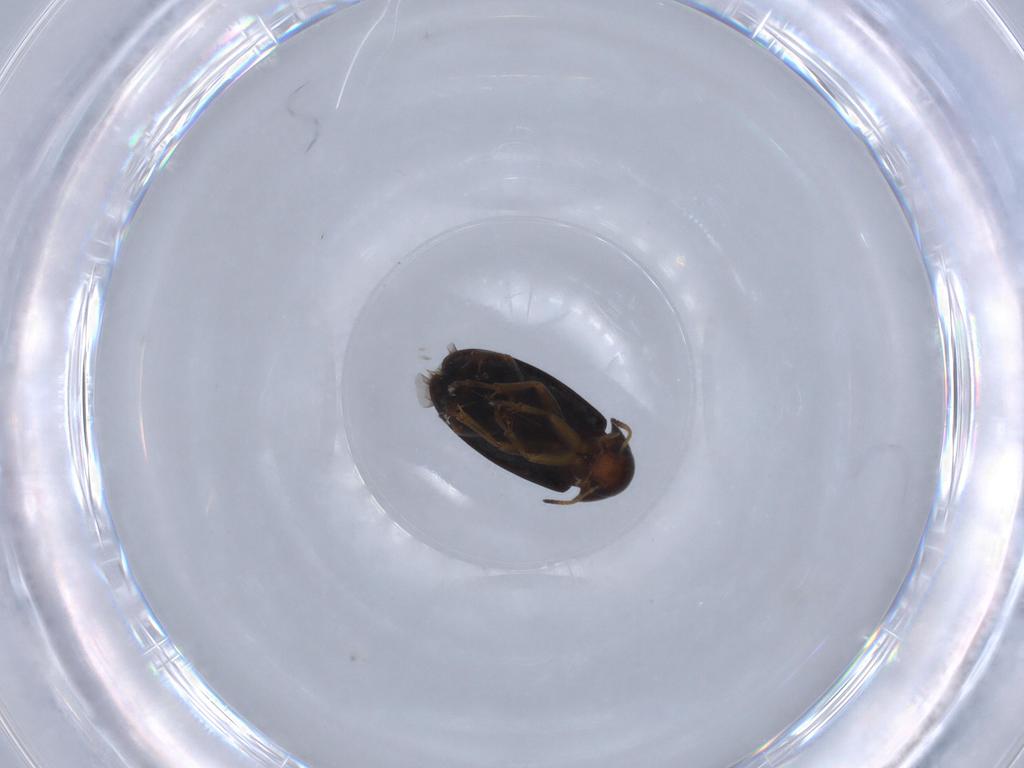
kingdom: Animalia
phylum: Arthropoda
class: Insecta
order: Coleoptera
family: Scraptiidae
